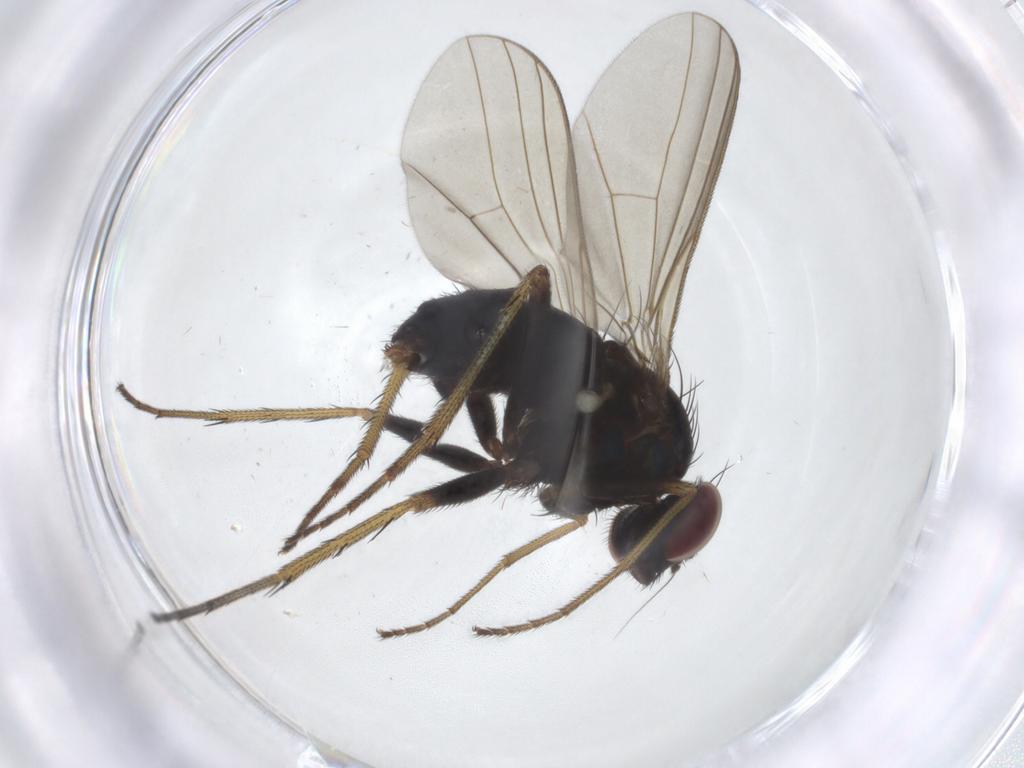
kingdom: Animalia
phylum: Arthropoda
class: Insecta
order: Diptera
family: Dolichopodidae
